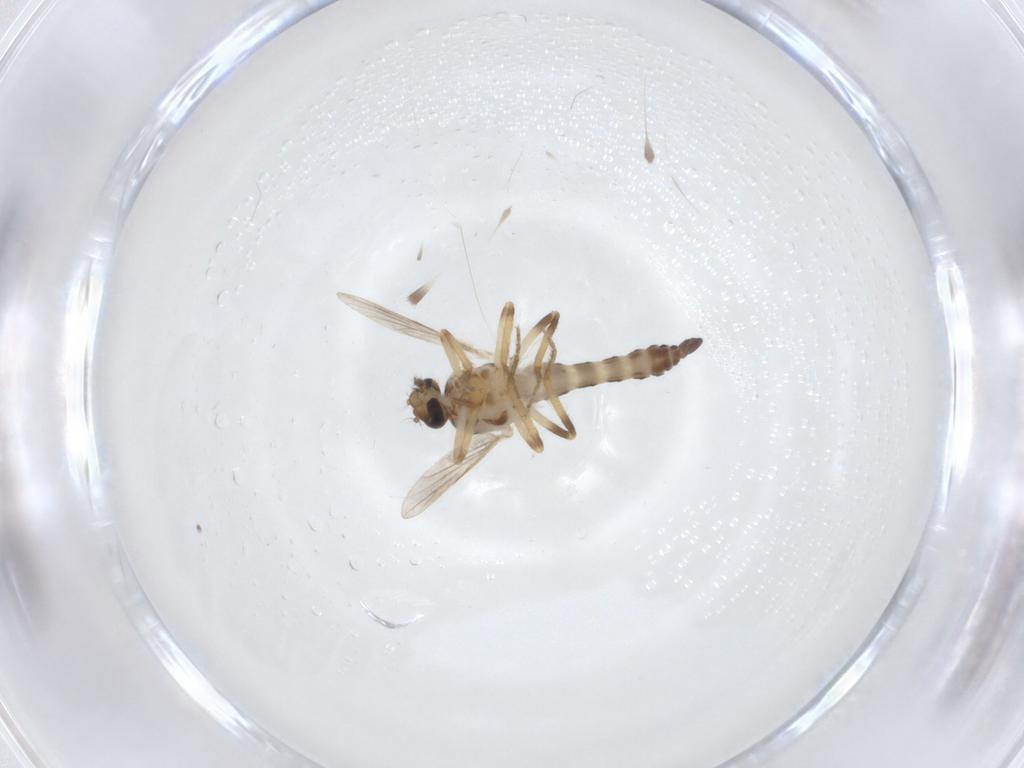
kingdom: Animalia
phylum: Arthropoda
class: Insecta
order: Diptera
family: Ceratopogonidae
